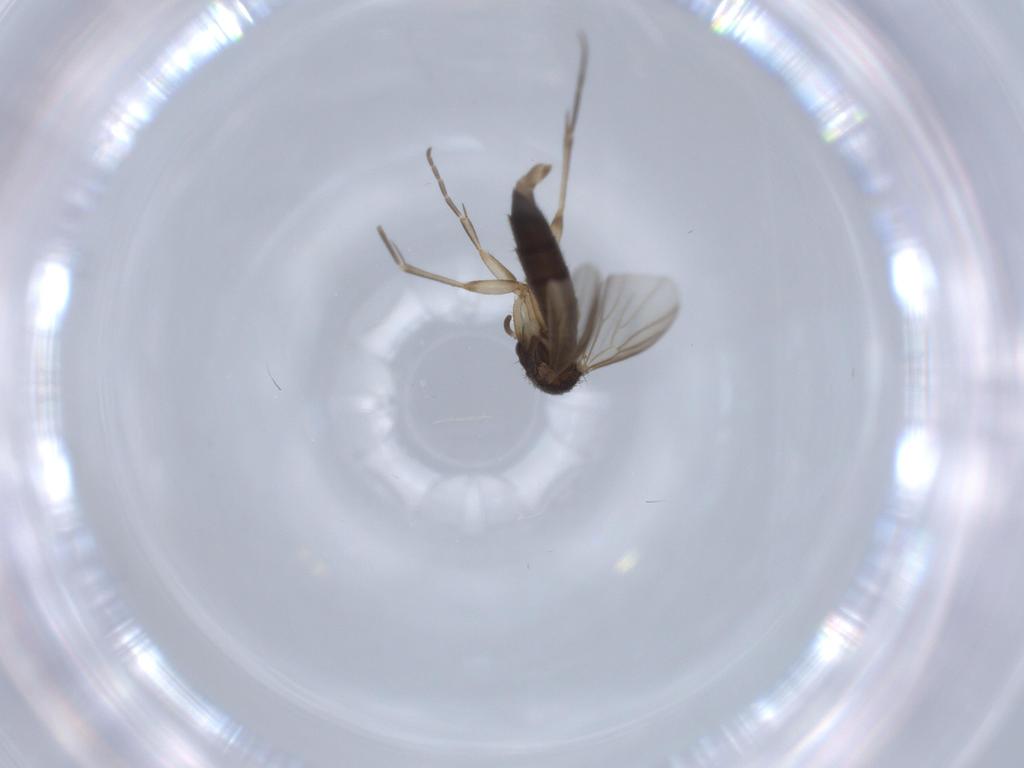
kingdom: Animalia
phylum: Arthropoda
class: Insecta
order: Diptera
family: Mycetophilidae
